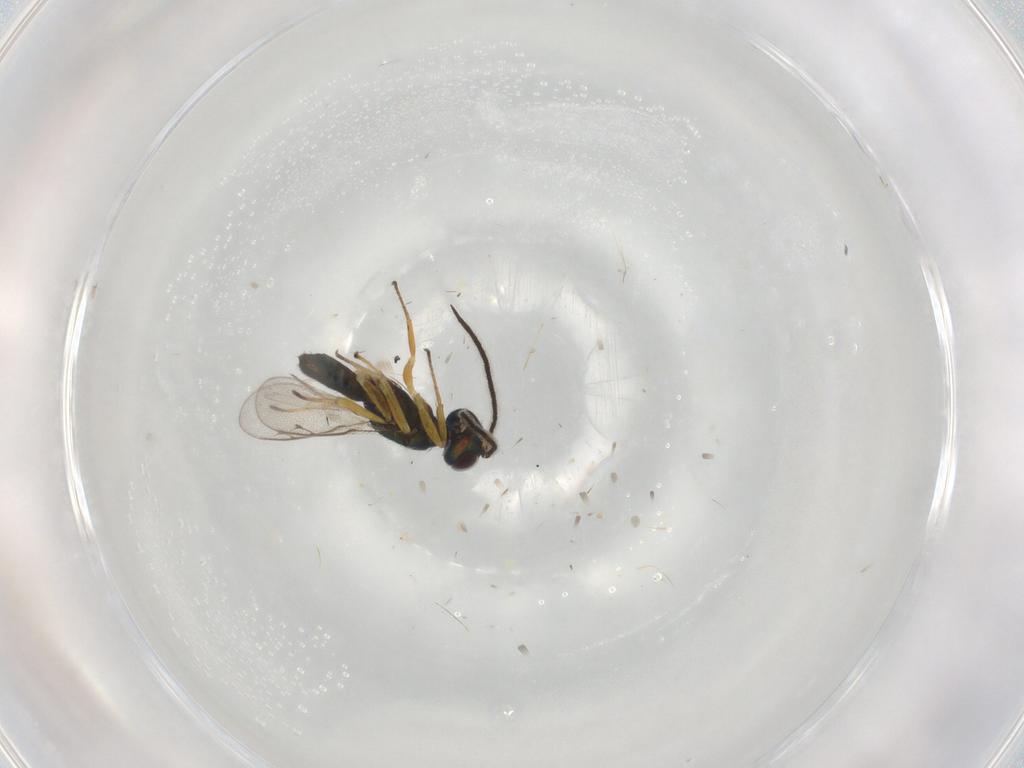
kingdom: Animalia
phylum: Arthropoda
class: Insecta
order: Hymenoptera
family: Eupelmidae
